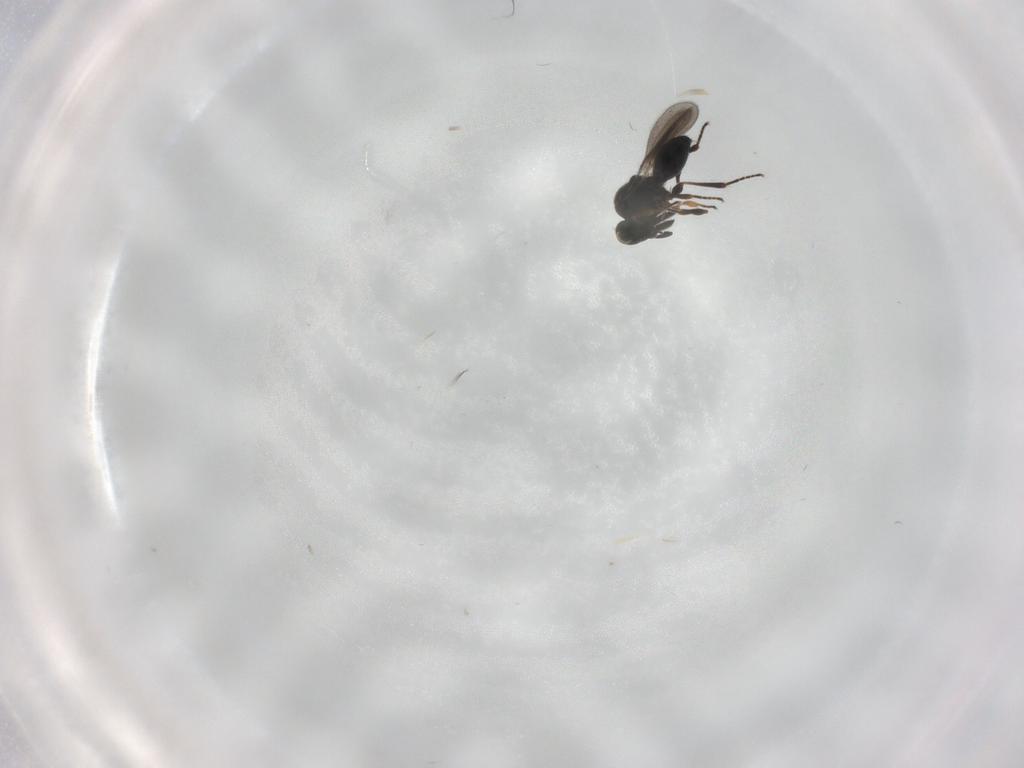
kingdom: Animalia
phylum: Arthropoda
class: Insecta
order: Hymenoptera
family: Platygastridae
